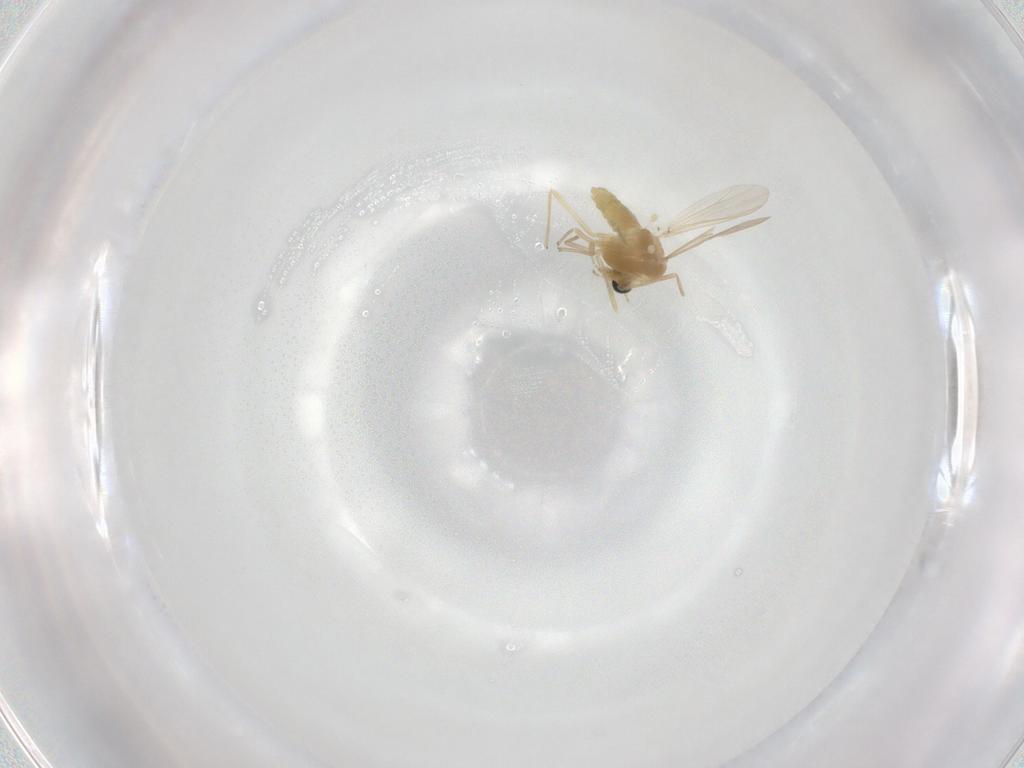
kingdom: Animalia
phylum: Arthropoda
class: Insecta
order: Diptera
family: Chironomidae
